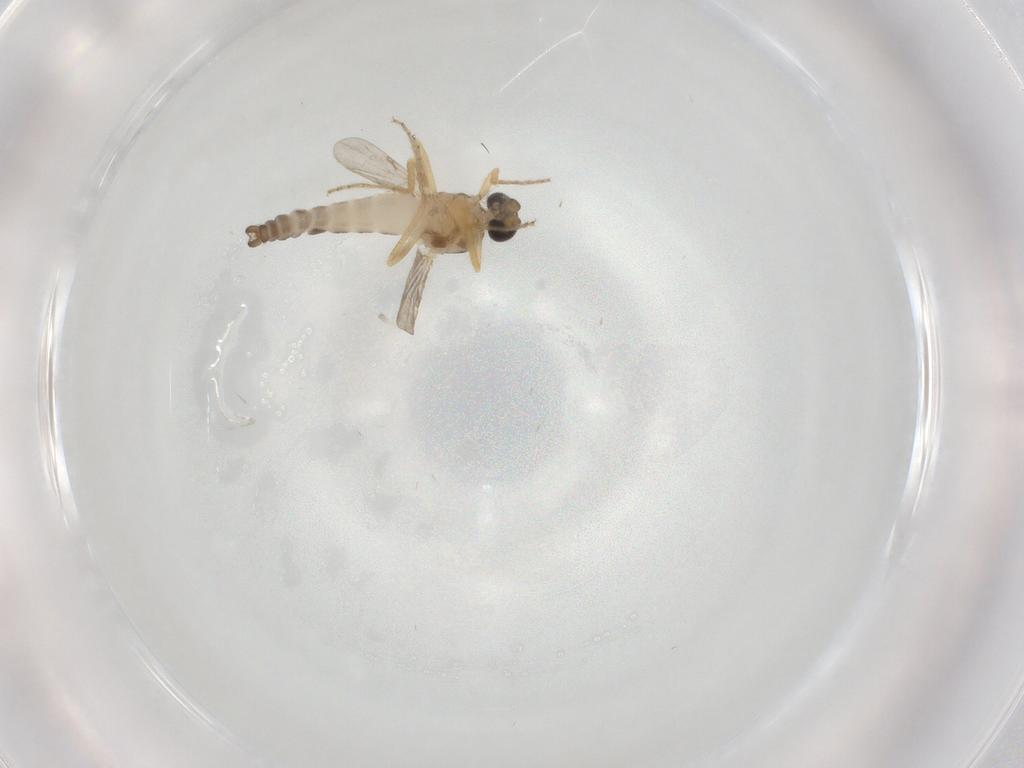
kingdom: Animalia
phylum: Arthropoda
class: Insecta
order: Diptera
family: Ceratopogonidae
